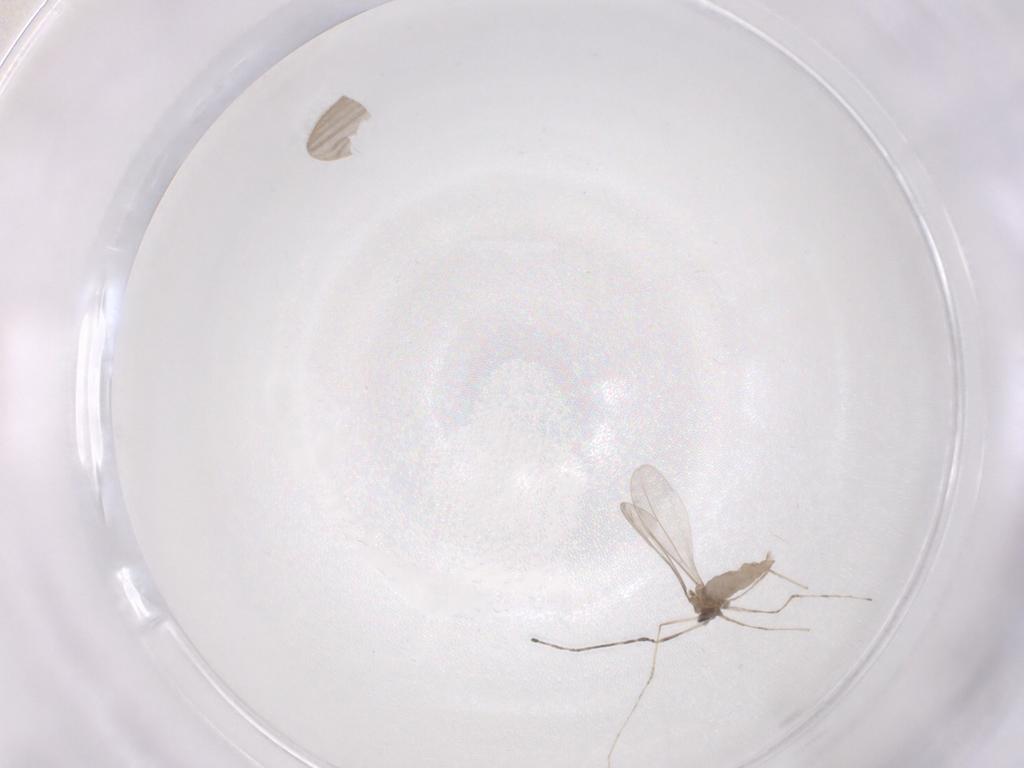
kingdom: Animalia
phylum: Arthropoda
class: Insecta
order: Diptera
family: Cecidomyiidae
